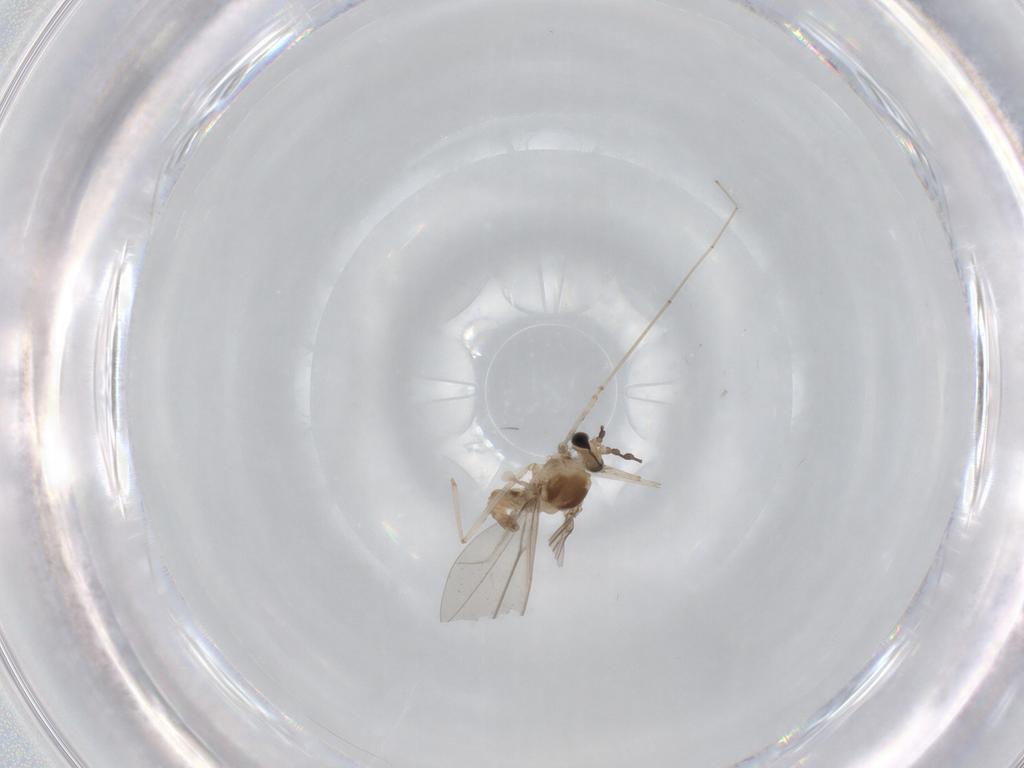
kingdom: Animalia
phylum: Arthropoda
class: Insecta
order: Diptera
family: Cecidomyiidae
